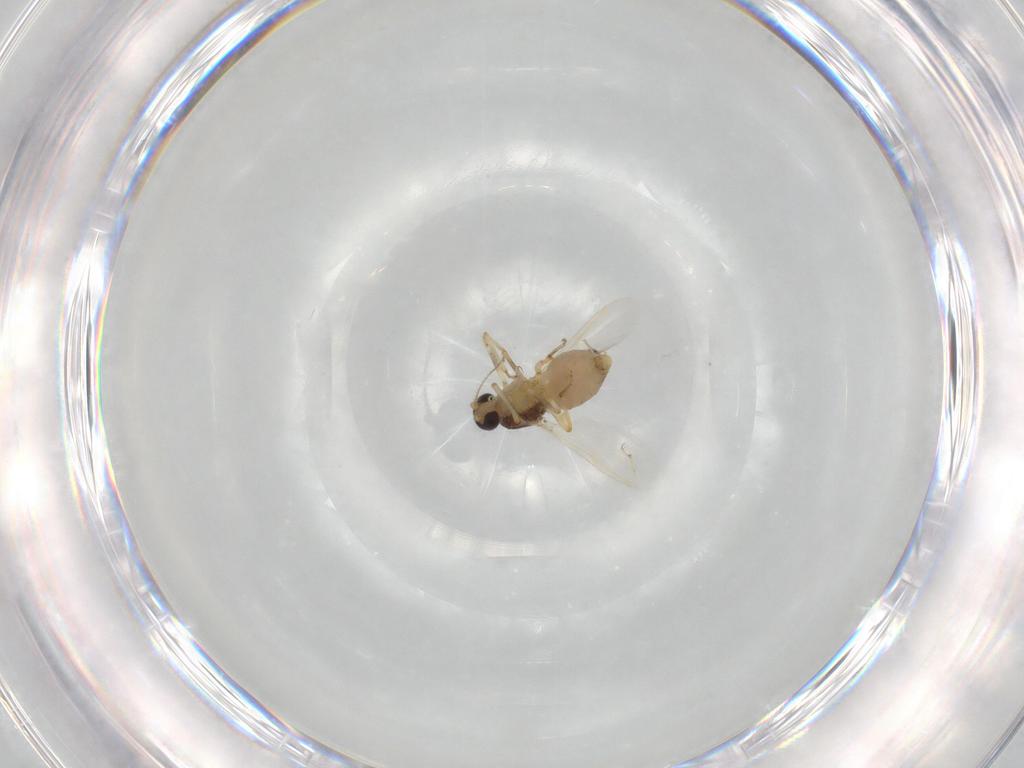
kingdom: Animalia
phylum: Arthropoda
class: Insecta
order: Diptera
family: Ceratopogonidae
